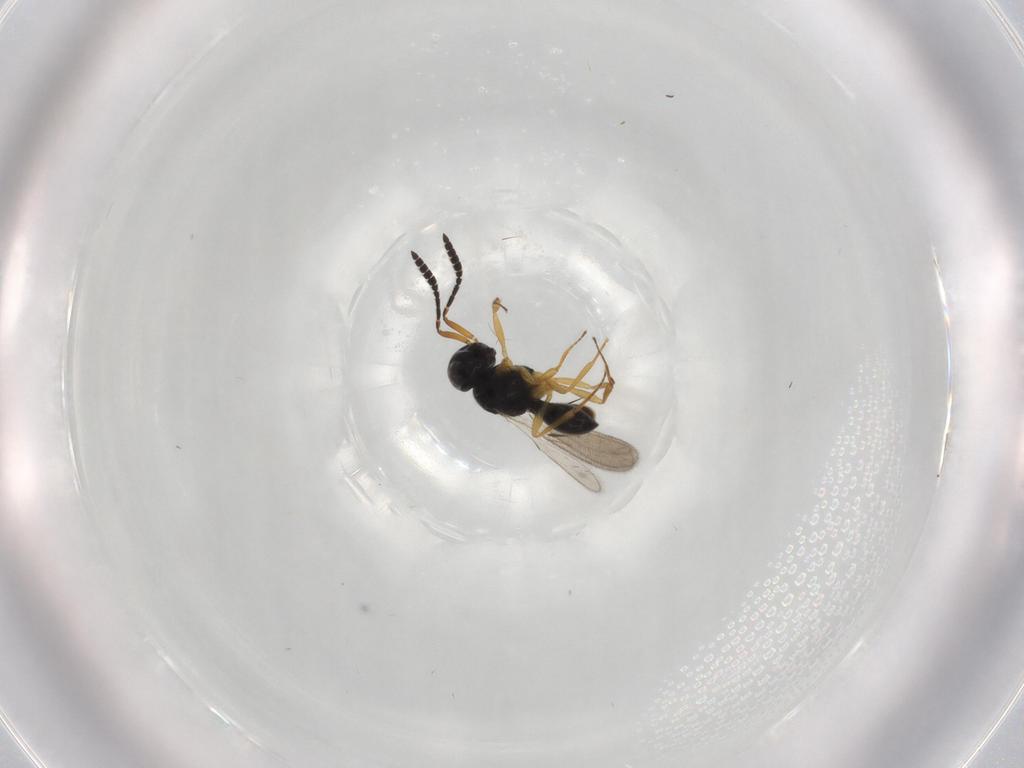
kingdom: Animalia
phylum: Arthropoda
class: Insecta
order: Hymenoptera
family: Scelionidae
